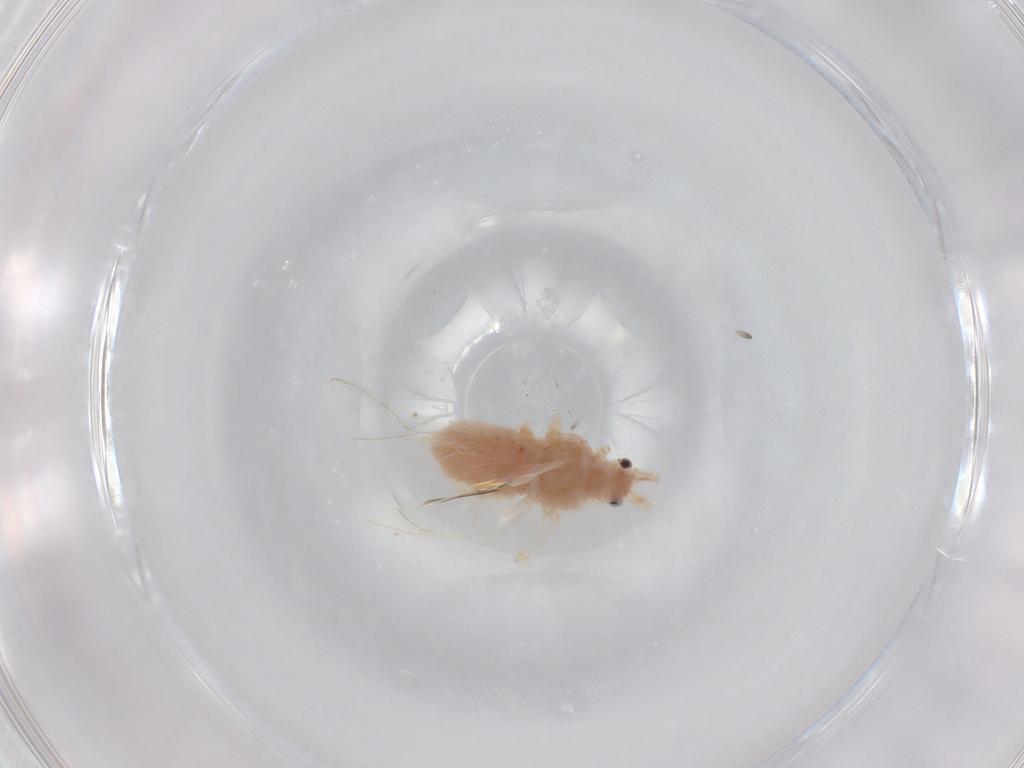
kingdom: Animalia
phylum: Arthropoda
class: Insecta
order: Hemiptera
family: Aphididae
